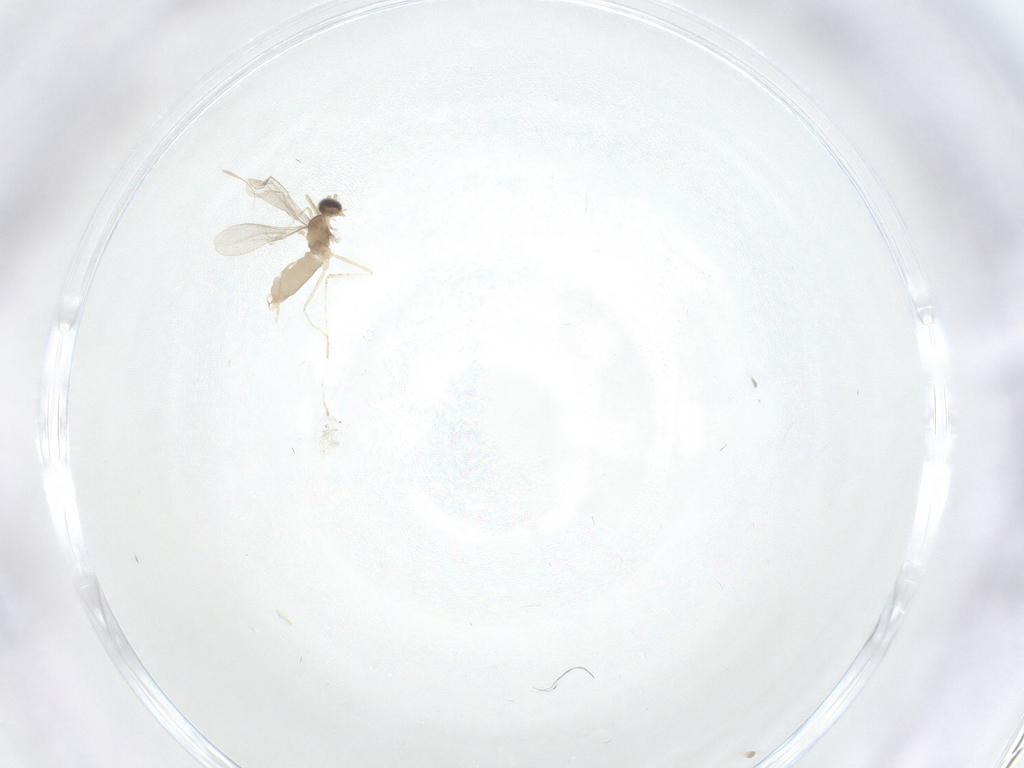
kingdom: Animalia
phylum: Arthropoda
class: Insecta
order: Diptera
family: Cecidomyiidae
